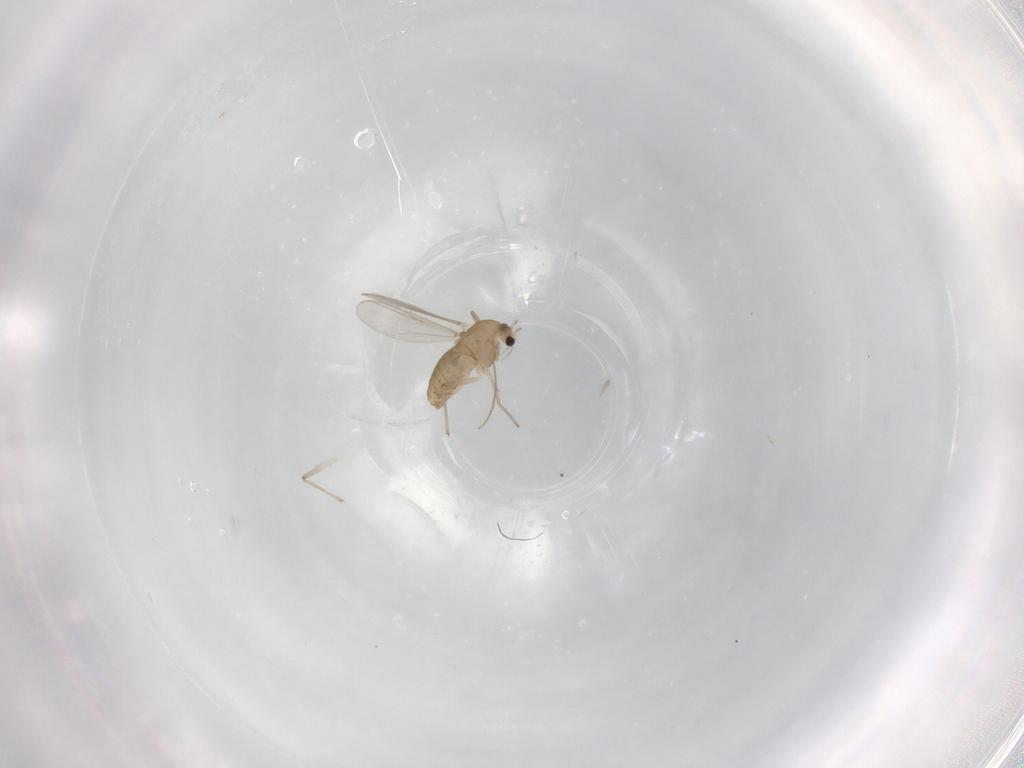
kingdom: Animalia
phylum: Arthropoda
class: Insecta
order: Diptera
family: Chironomidae
